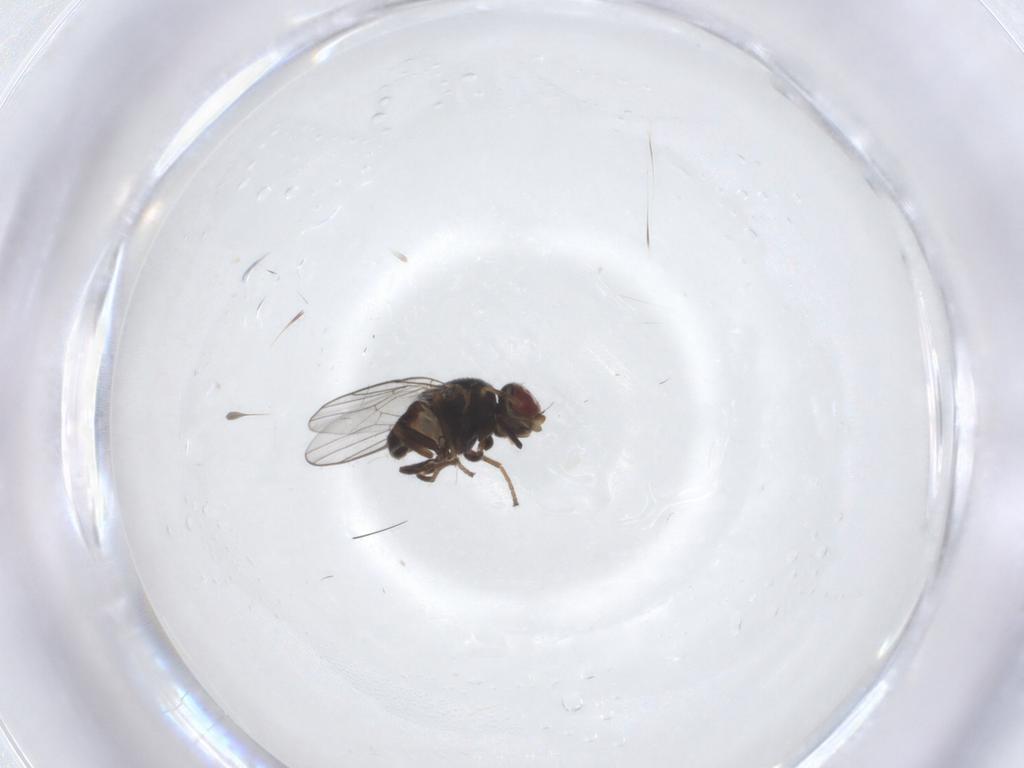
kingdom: Animalia
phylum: Arthropoda
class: Insecta
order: Diptera
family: Chloropidae
